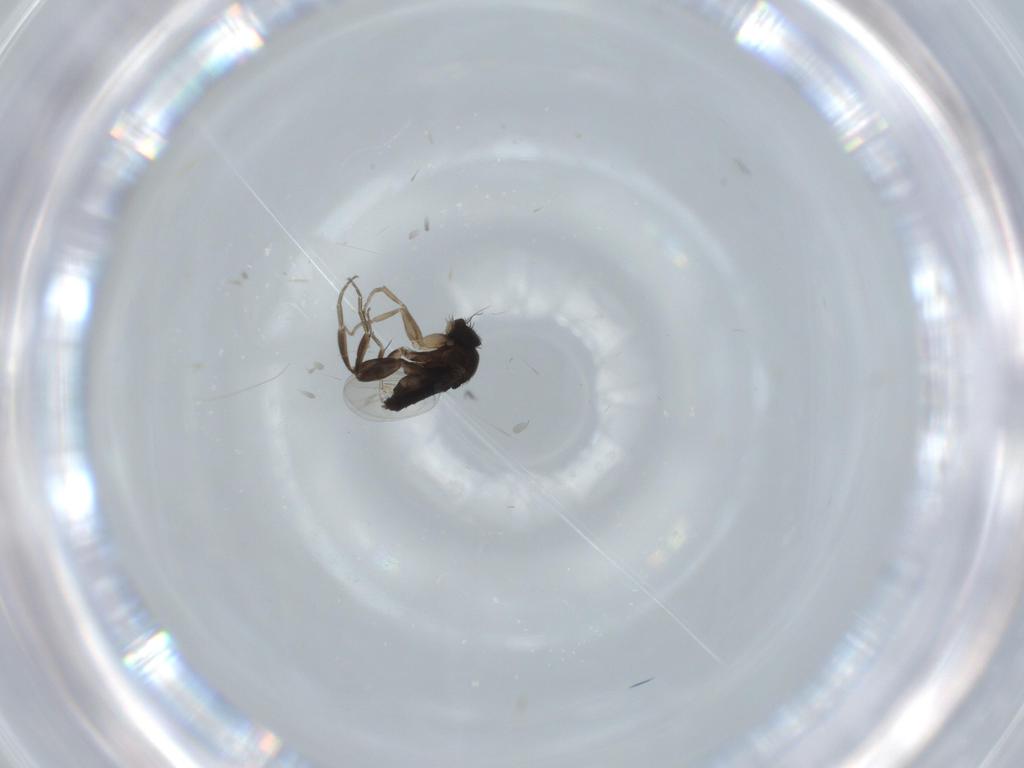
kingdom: Animalia
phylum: Arthropoda
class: Insecta
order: Diptera
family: Phoridae
